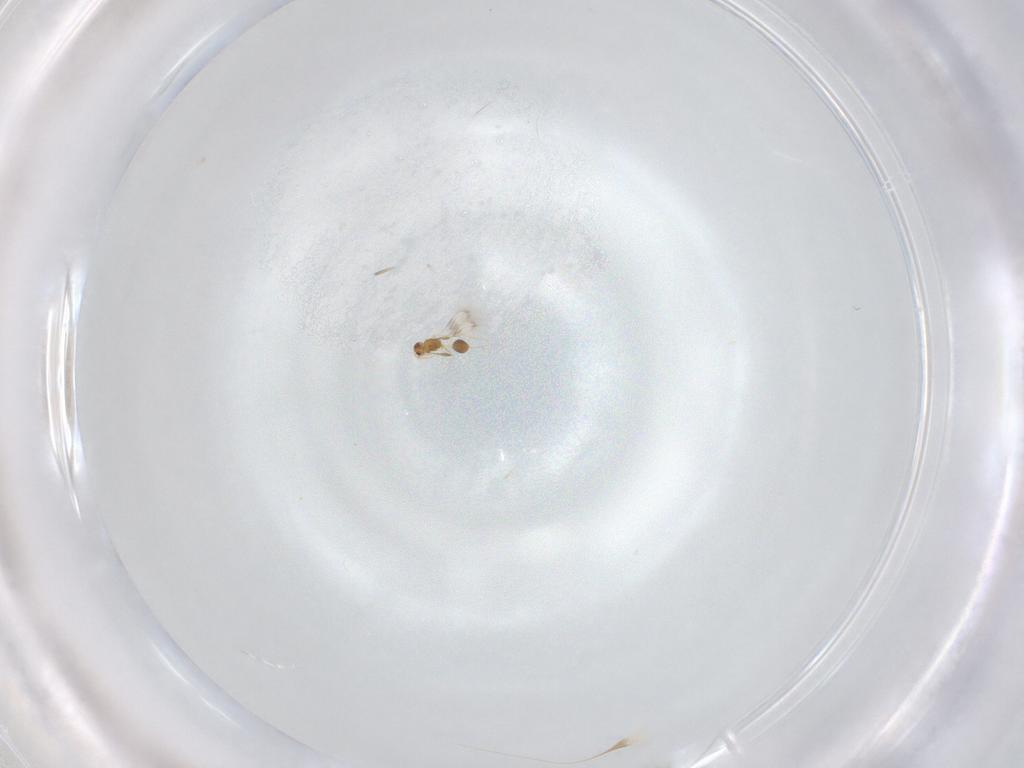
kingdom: Animalia
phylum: Arthropoda
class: Insecta
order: Hymenoptera
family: Mymarommatidae
